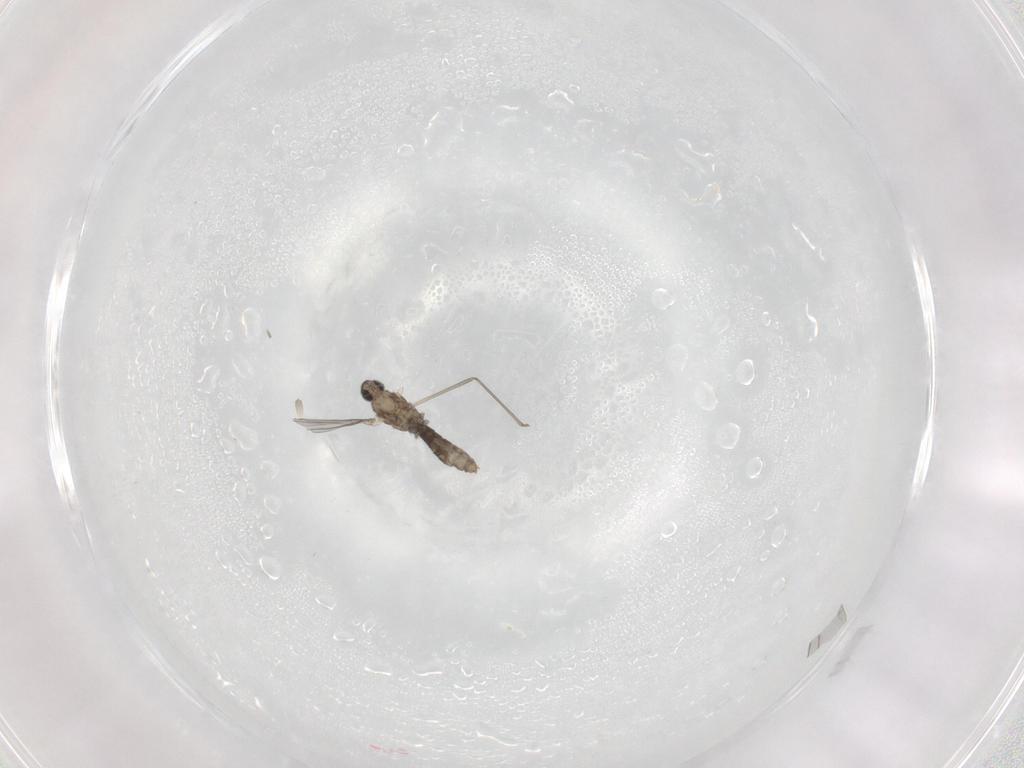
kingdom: Animalia
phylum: Arthropoda
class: Insecta
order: Diptera
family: Cecidomyiidae
